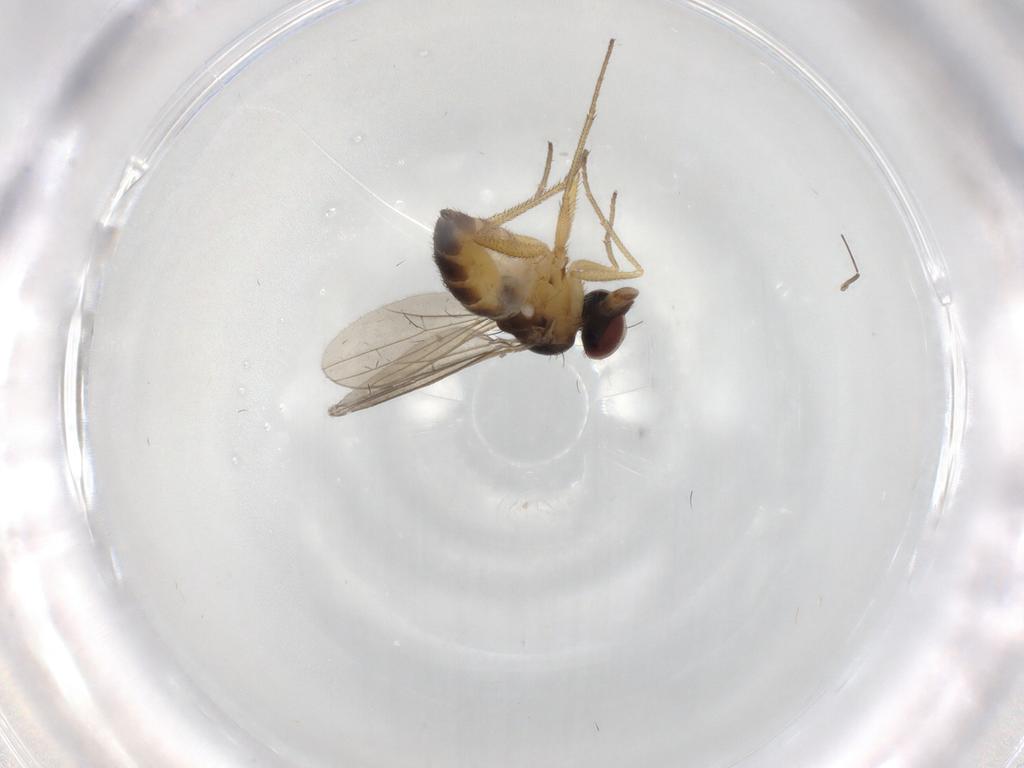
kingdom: Animalia
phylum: Arthropoda
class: Insecta
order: Diptera
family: Dolichopodidae
